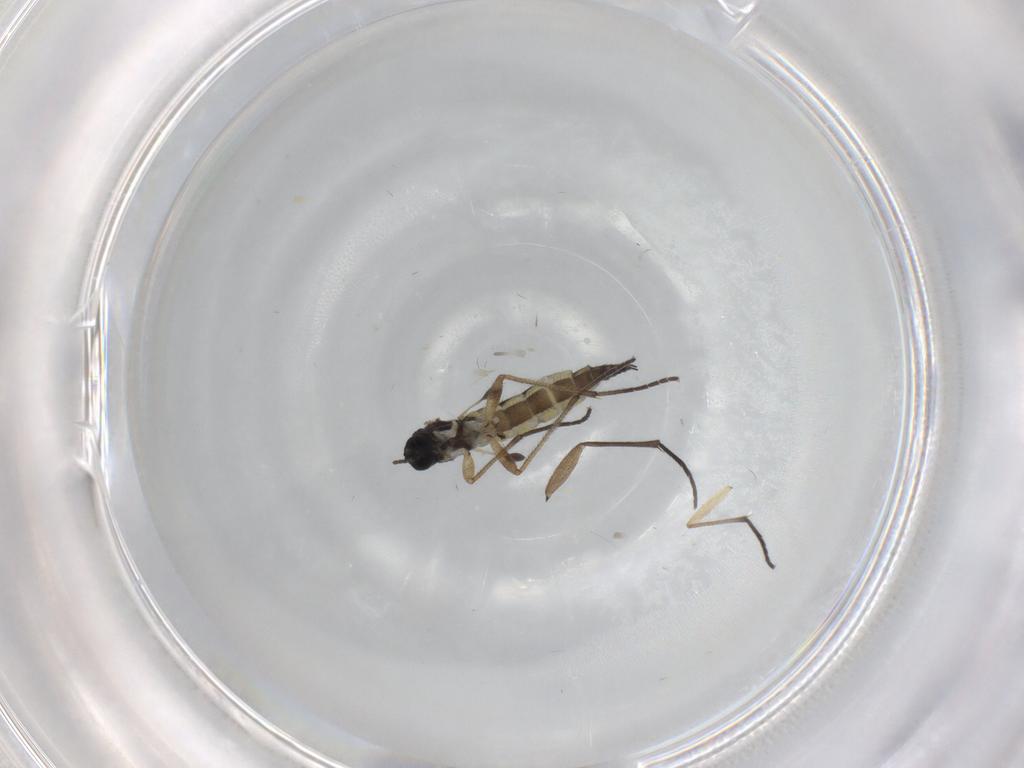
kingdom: Animalia
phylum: Arthropoda
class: Insecta
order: Diptera
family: Sciaridae
